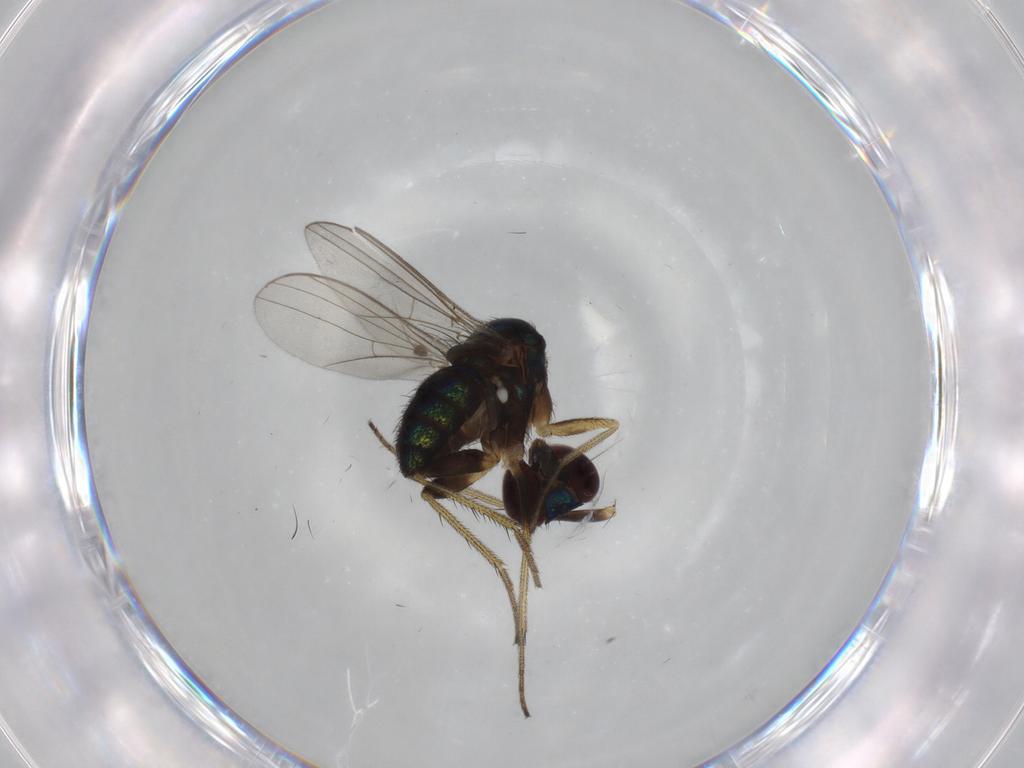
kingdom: Animalia
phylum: Arthropoda
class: Insecta
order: Diptera
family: Dolichopodidae
